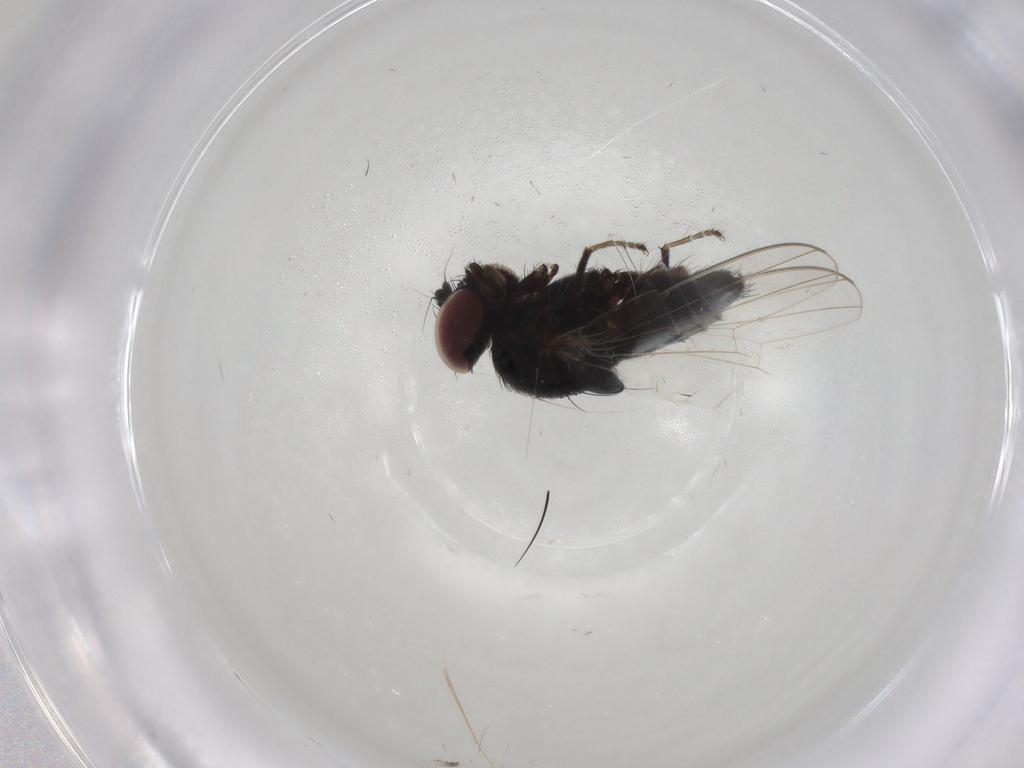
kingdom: Animalia
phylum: Arthropoda
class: Insecta
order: Diptera
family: Milichiidae
